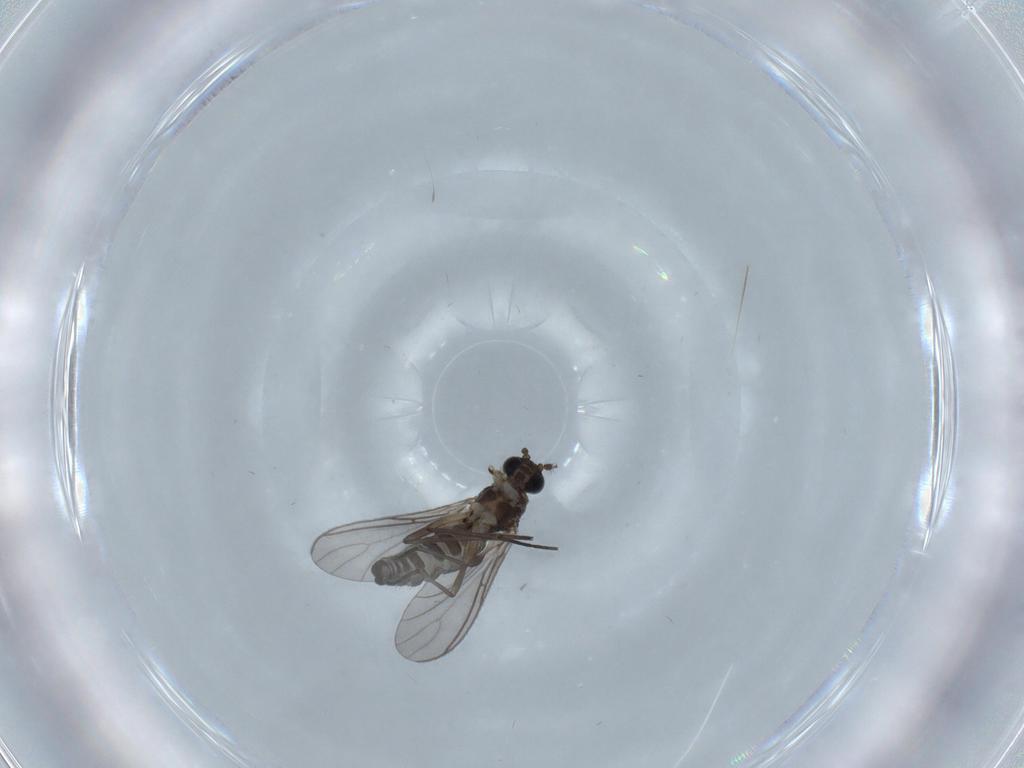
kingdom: Animalia
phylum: Arthropoda
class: Insecta
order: Diptera
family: Sciaridae
